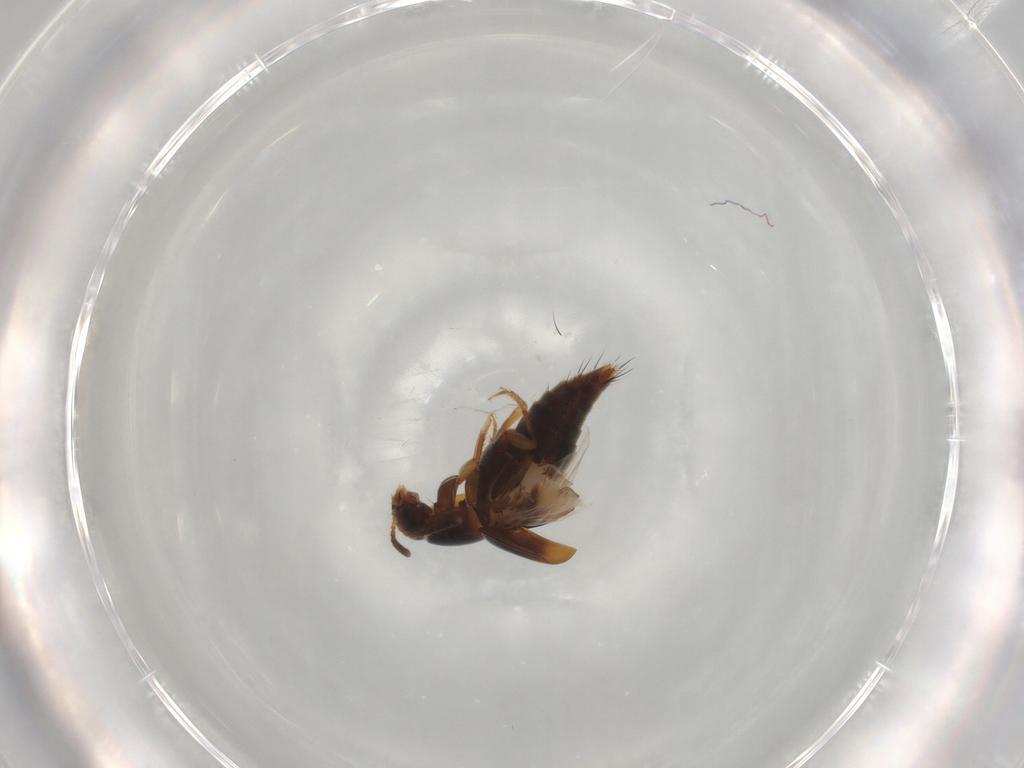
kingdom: Animalia
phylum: Arthropoda
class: Insecta
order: Coleoptera
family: Staphylinidae
